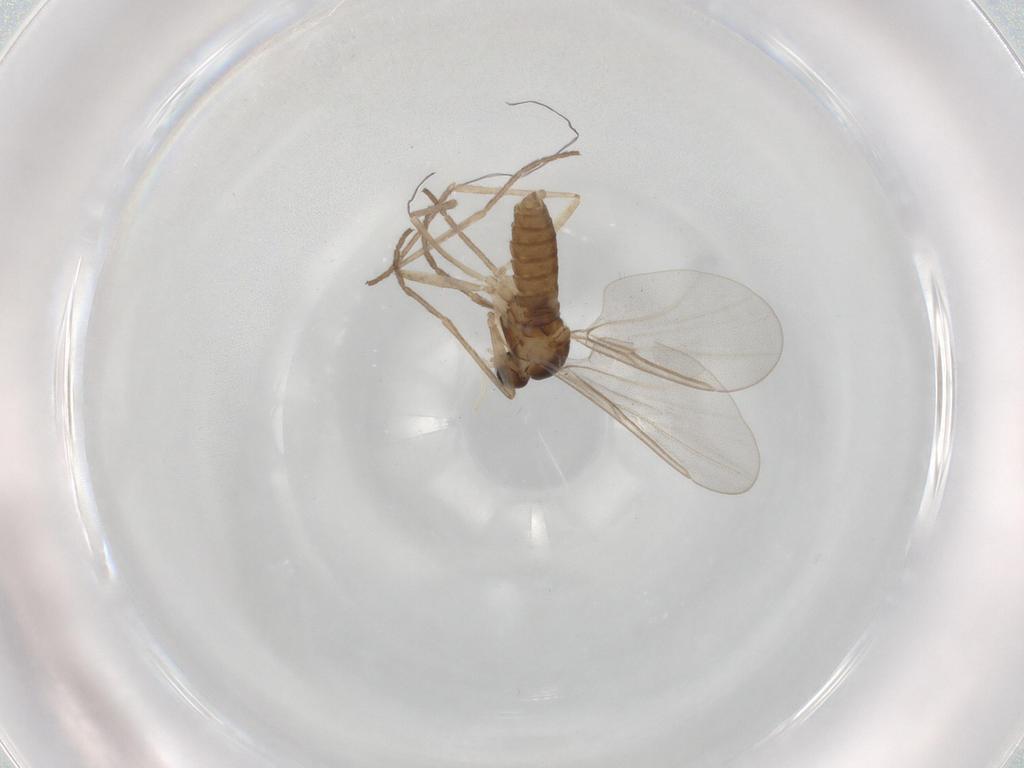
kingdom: Animalia
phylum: Arthropoda
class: Insecta
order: Diptera
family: Cecidomyiidae
